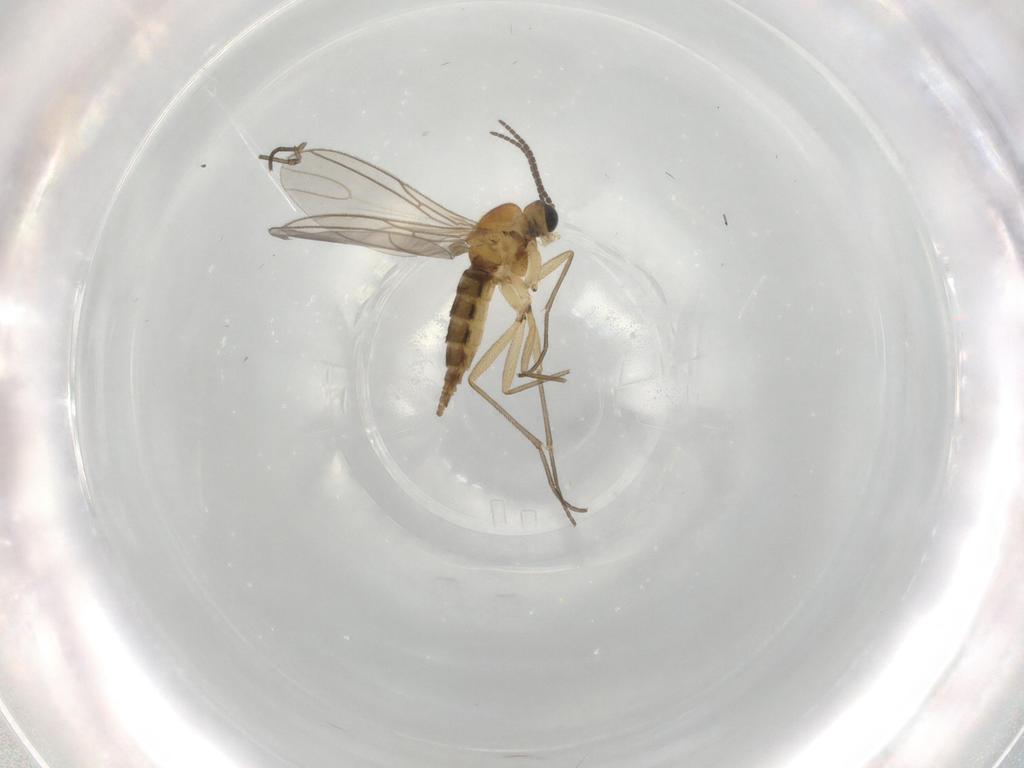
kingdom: Animalia
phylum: Arthropoda
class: Insecta
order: Diptera
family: Sciaridae
